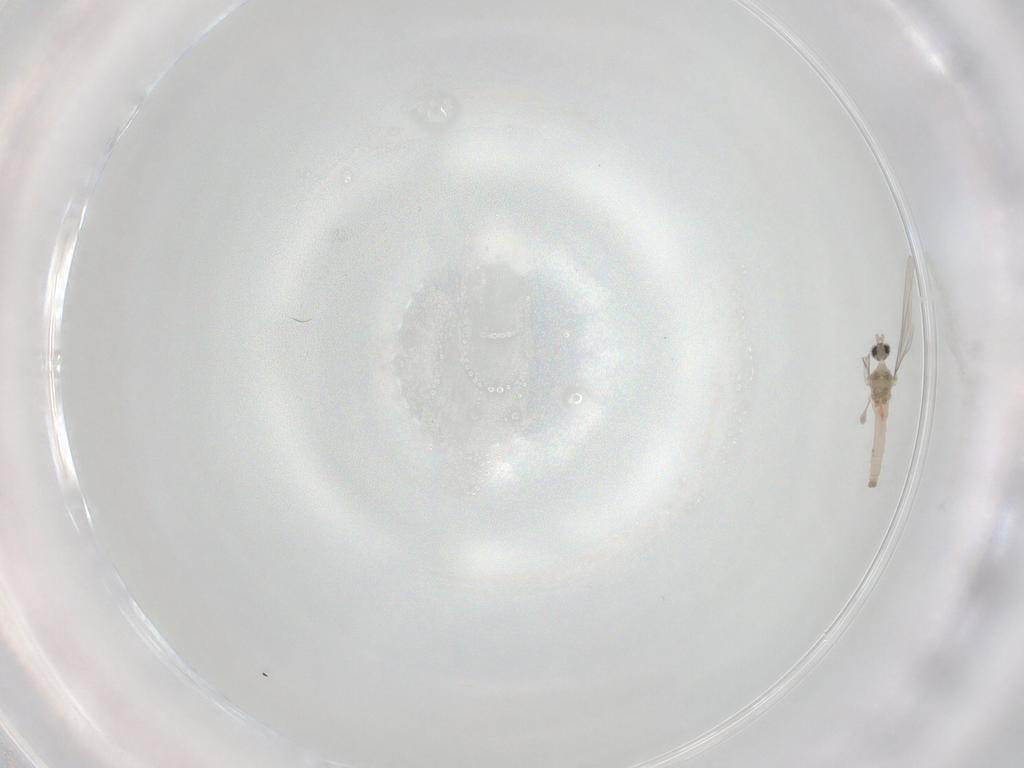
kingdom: Animalia
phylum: Arthropoda
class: Insecta
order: Diptera
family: Cecidomyiidae
